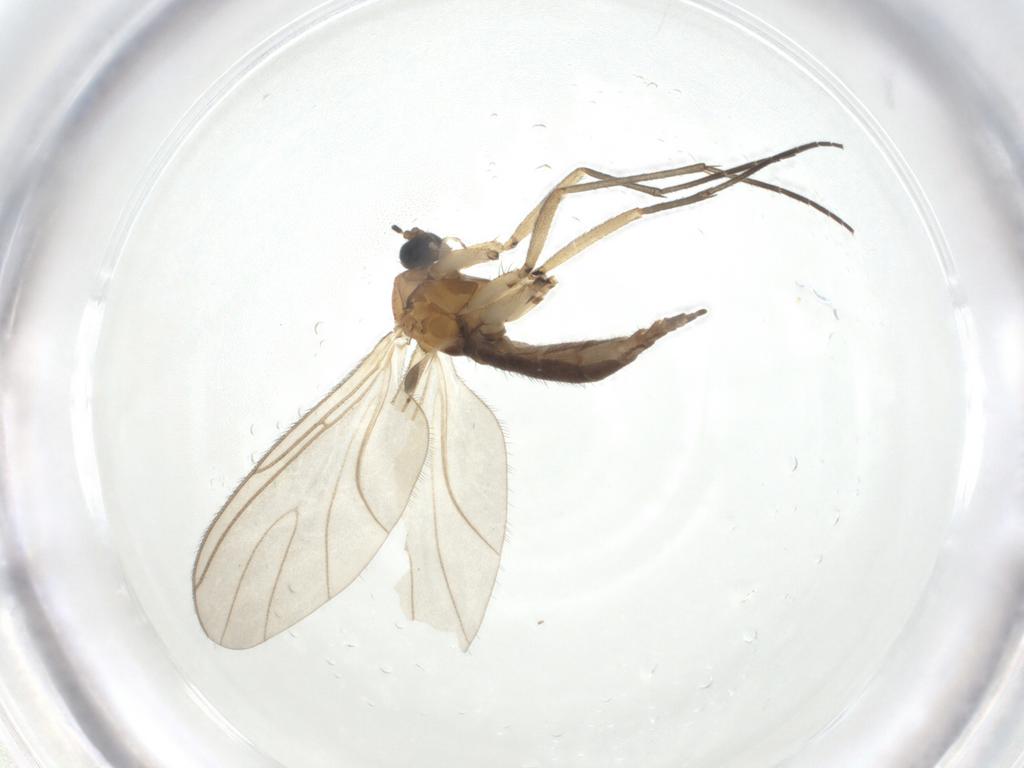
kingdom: Animalia
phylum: Arthropoda
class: Insecta
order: Diptera
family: Sciaridae
